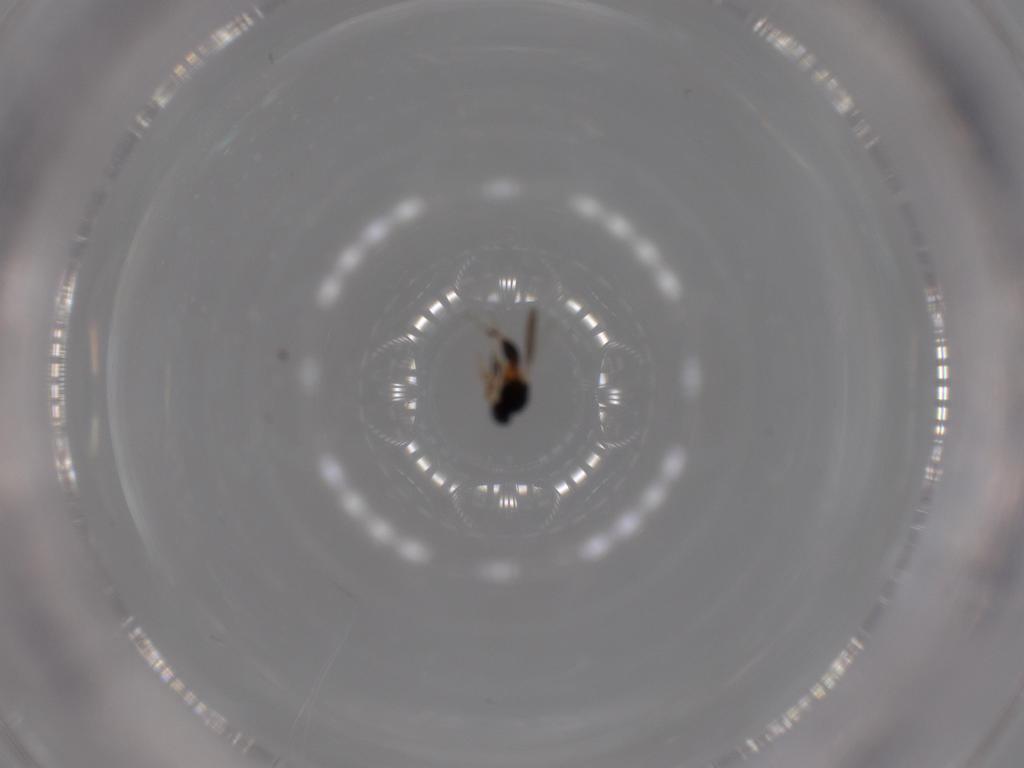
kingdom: Animalia
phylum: Arthropoda
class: Insecta
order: Hymenoptera
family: Platygastridae
